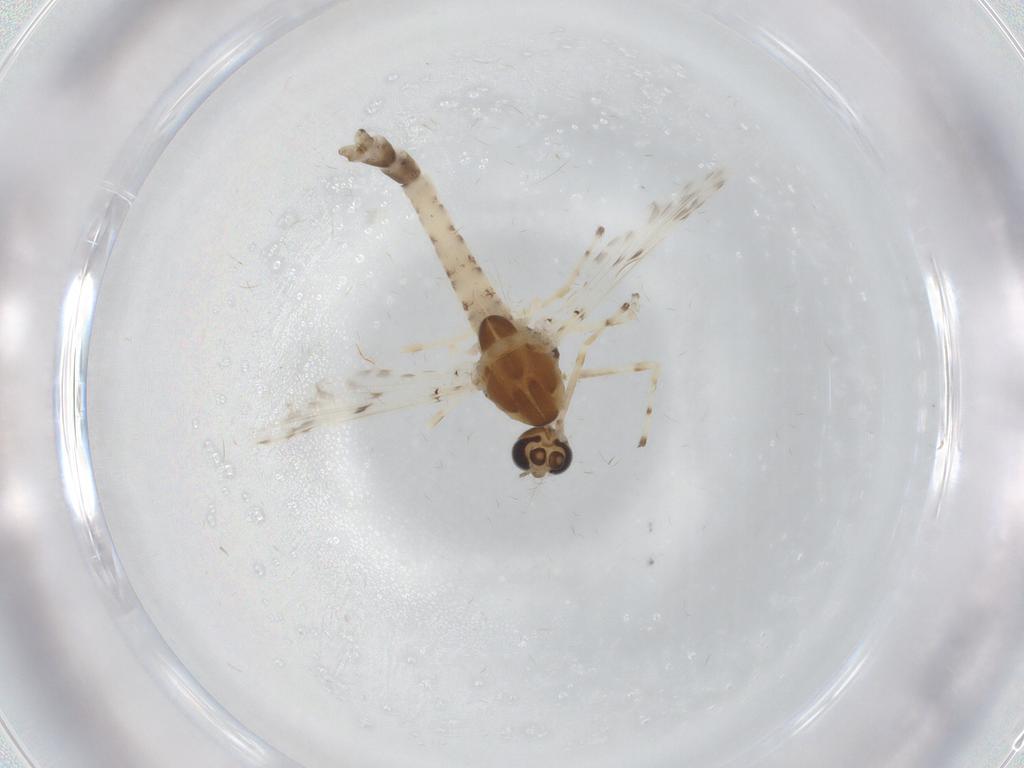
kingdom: Animalia
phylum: Arthropoda
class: Insecta
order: Diptera
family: Chironomidae
